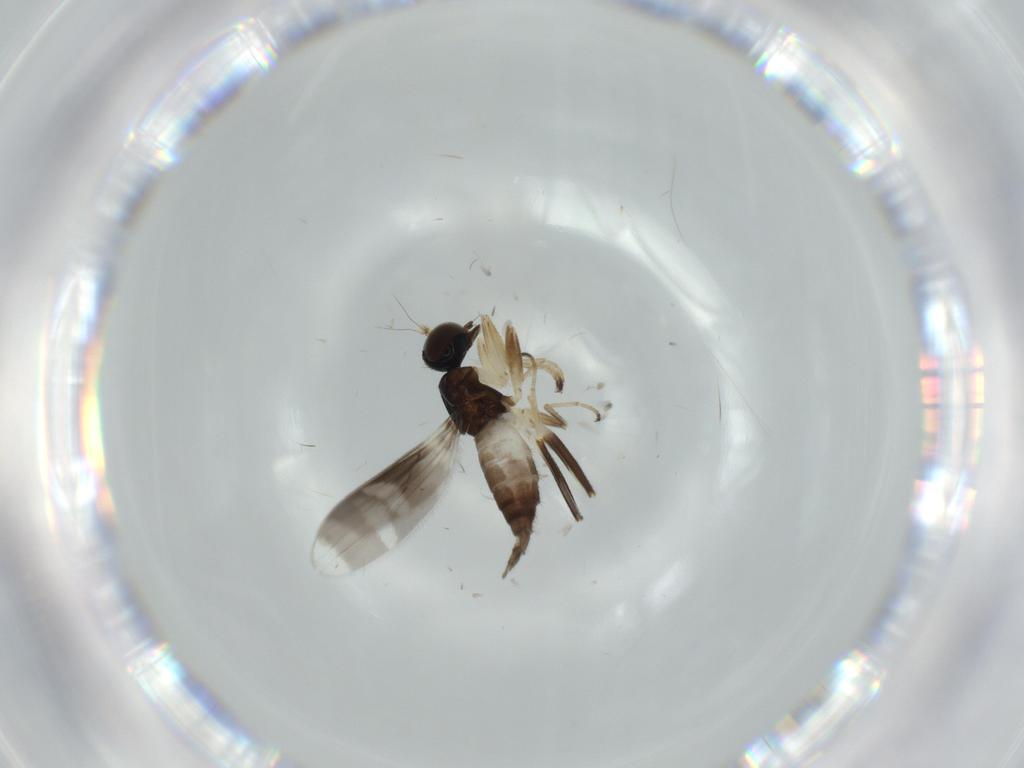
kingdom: Animalia
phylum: Arthropoda
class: Insecta
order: Diptera
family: Hybotidae
